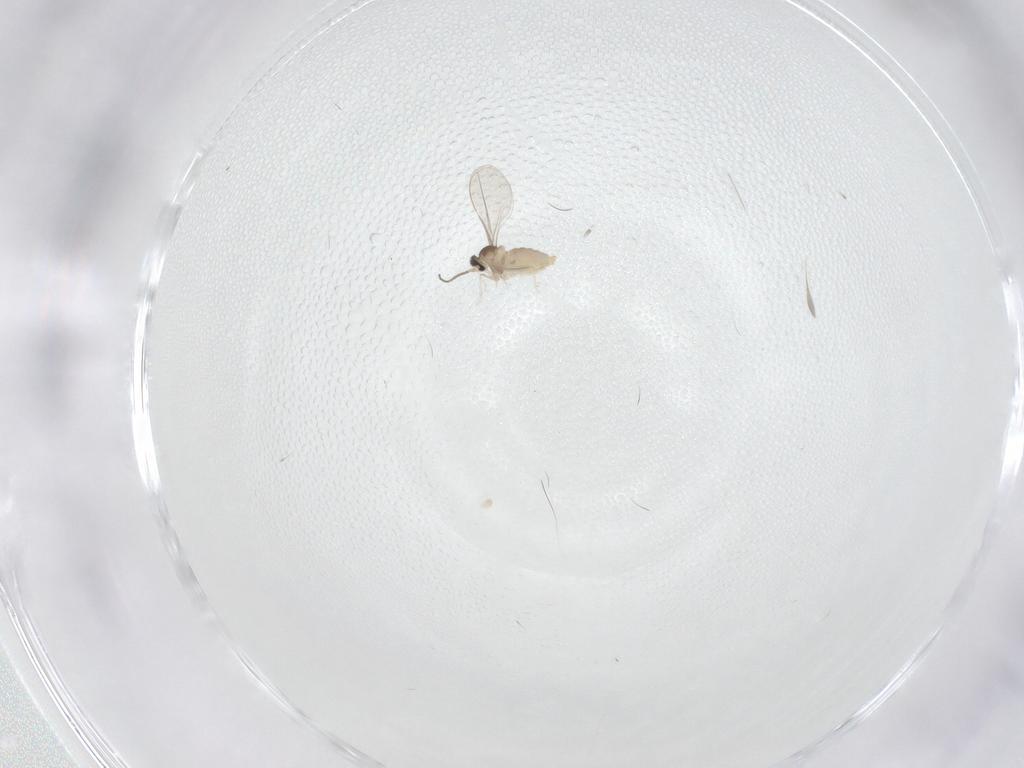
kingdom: Animalia
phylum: Arthropoda
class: Insecta
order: Diptera
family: Cecidomyiidae
